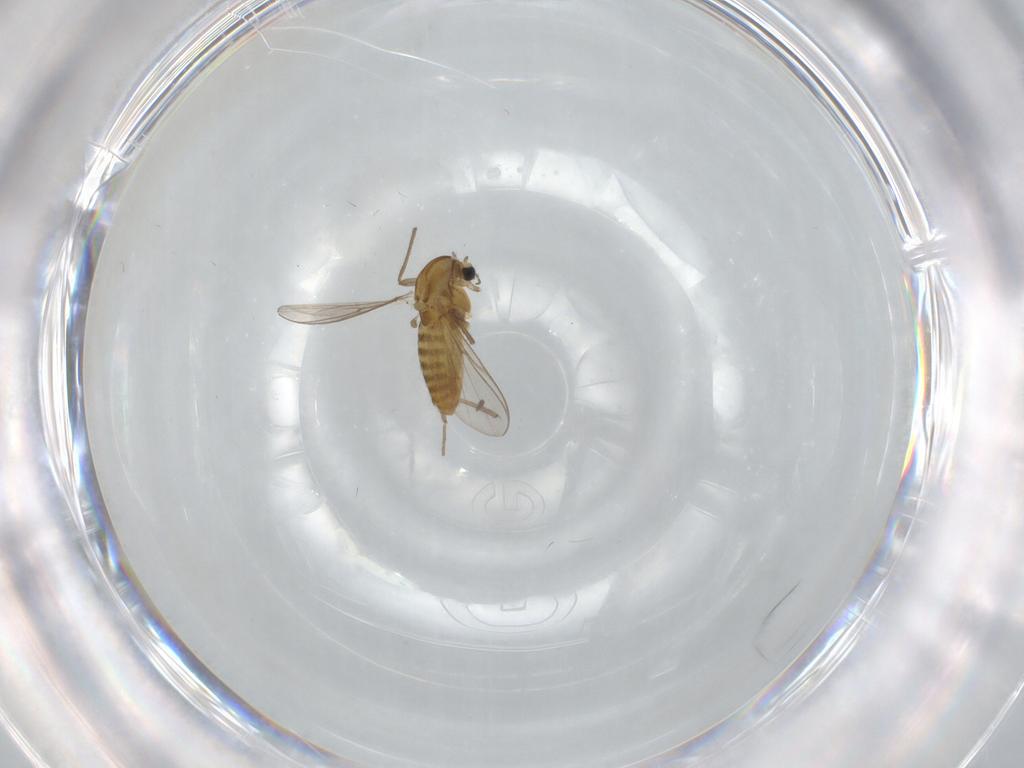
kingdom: Animalia
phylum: Arthropoda
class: Insecta
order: Diptera
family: Chironomidae
